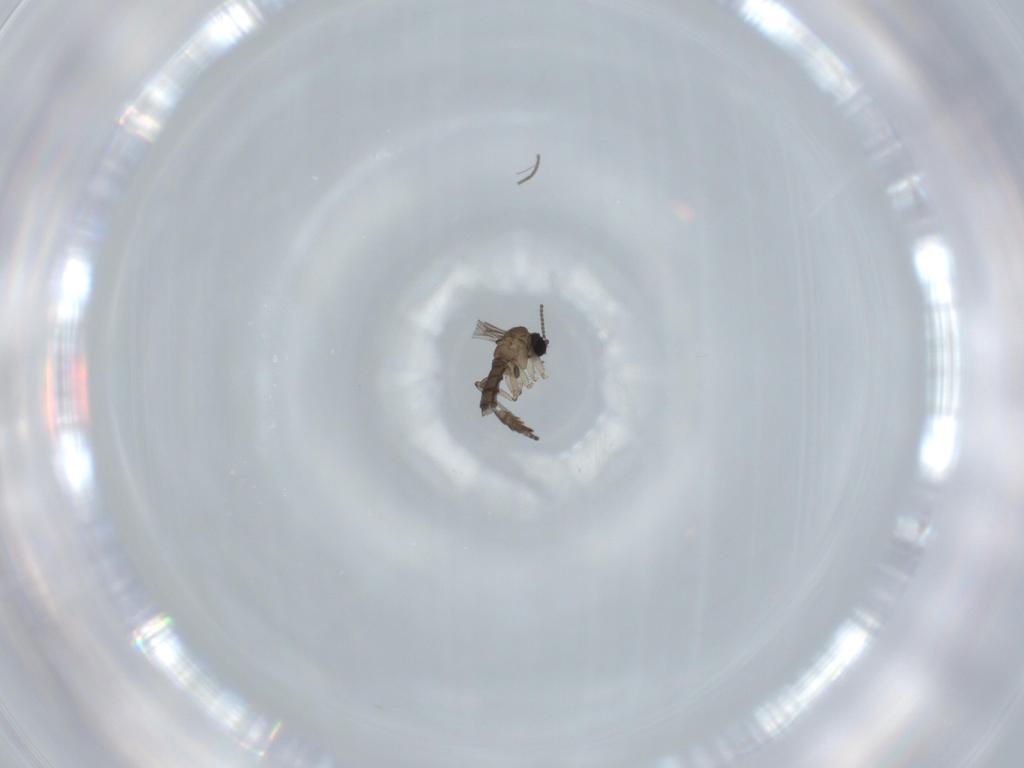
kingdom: Animalia
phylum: Arthropoda
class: Insecta
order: Diptera
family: Sciaridae
